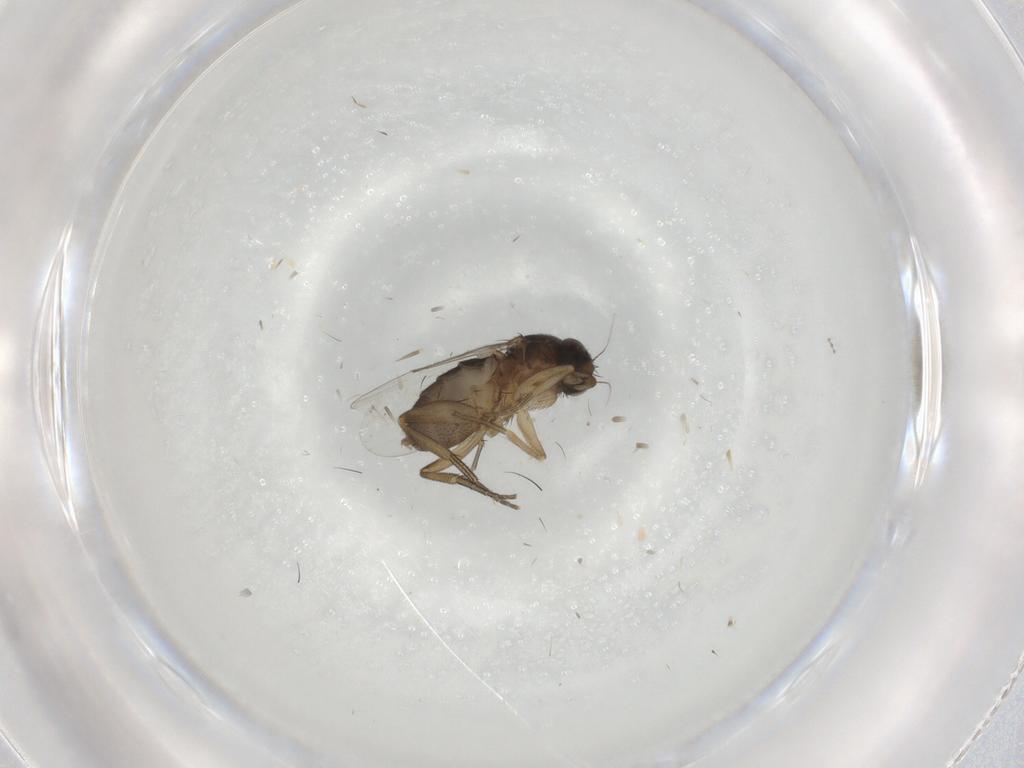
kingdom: Animalia
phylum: Arthropoda
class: Insecta
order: Diptera
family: Phoridae
